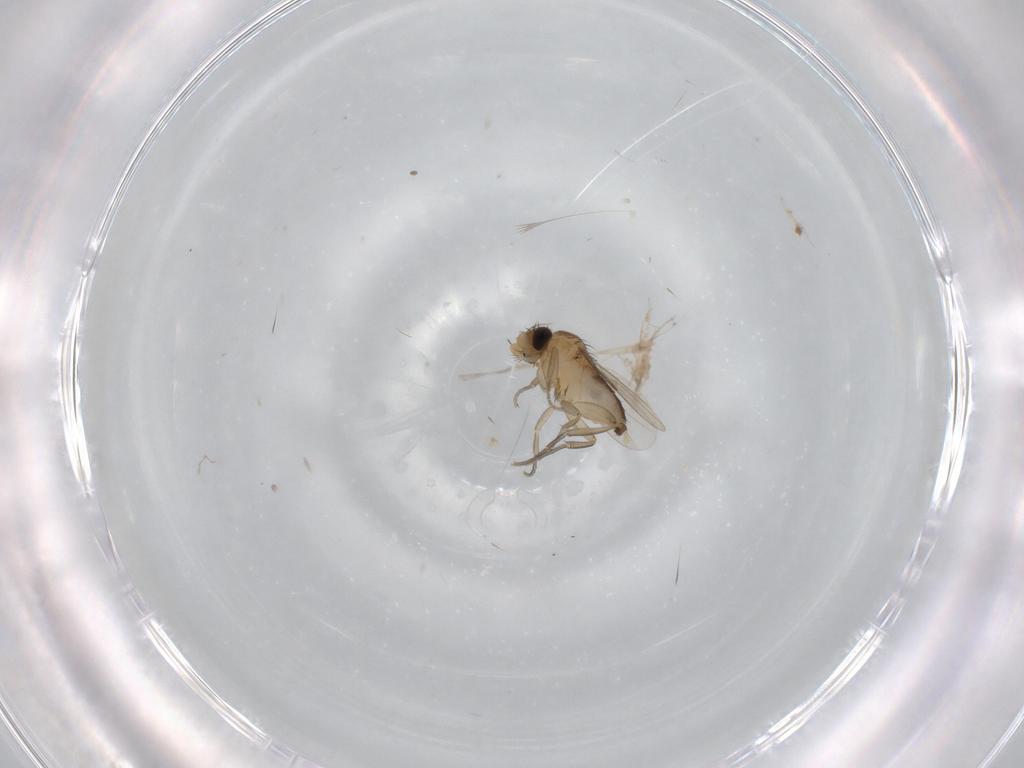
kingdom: Animalia
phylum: Arthropoda
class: Insecta
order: Diptera
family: Phoridae
